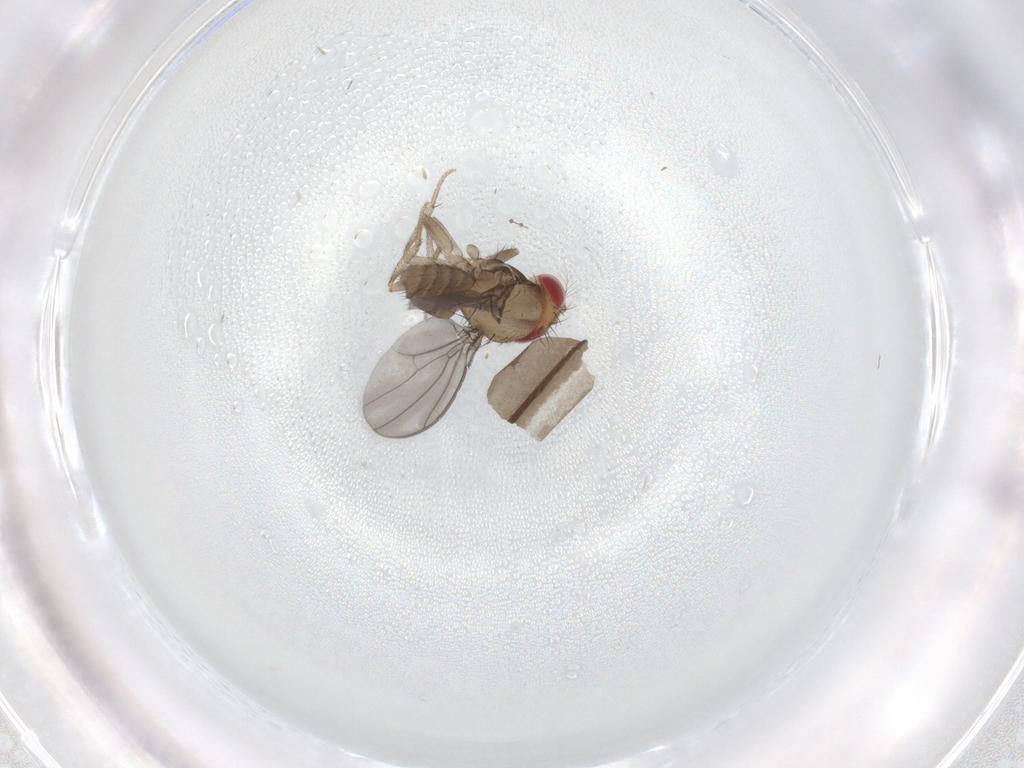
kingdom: Animalia
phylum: Arthropoda
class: Insecta
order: Diptera
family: Drosophilidae
